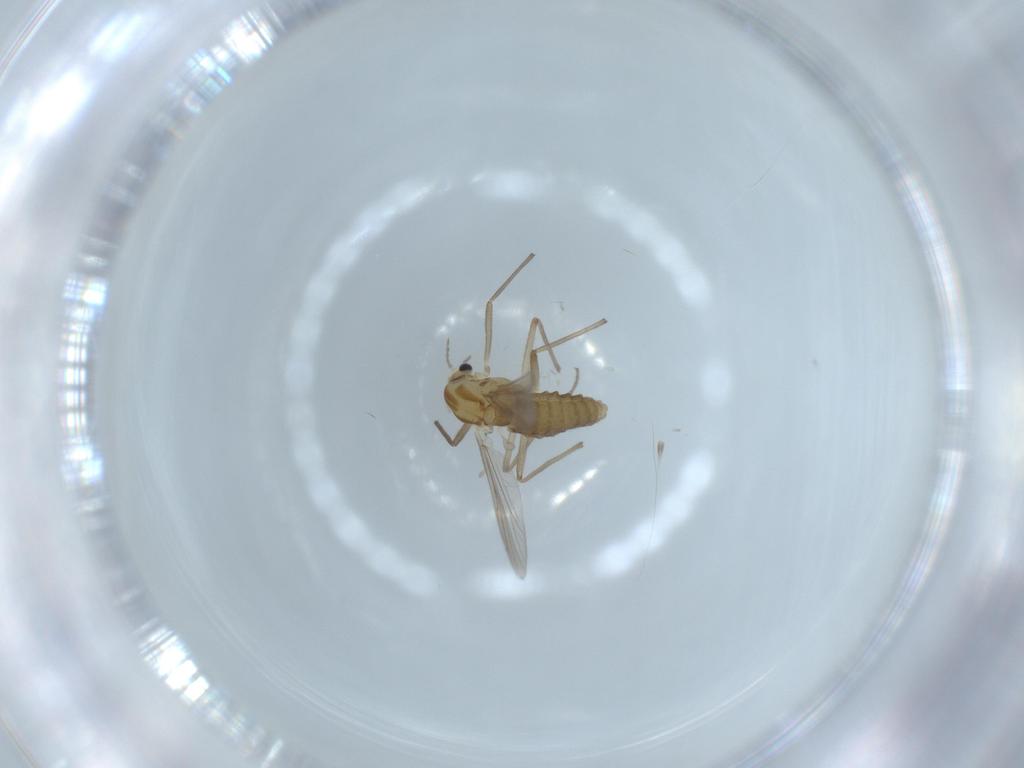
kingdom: Animalia
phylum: Arthropoda
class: Insecta
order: Diptera
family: Chironomidae
